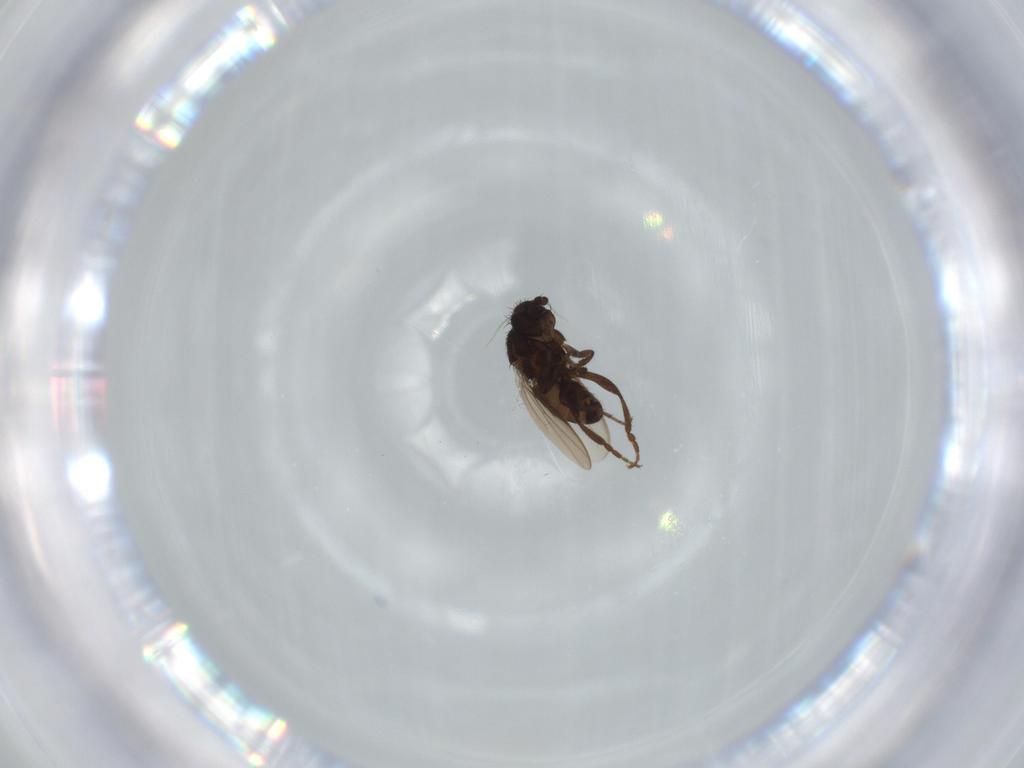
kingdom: Animalia
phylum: Arthropoda
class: Insecta
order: Diptera
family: Sphaeroceridae
